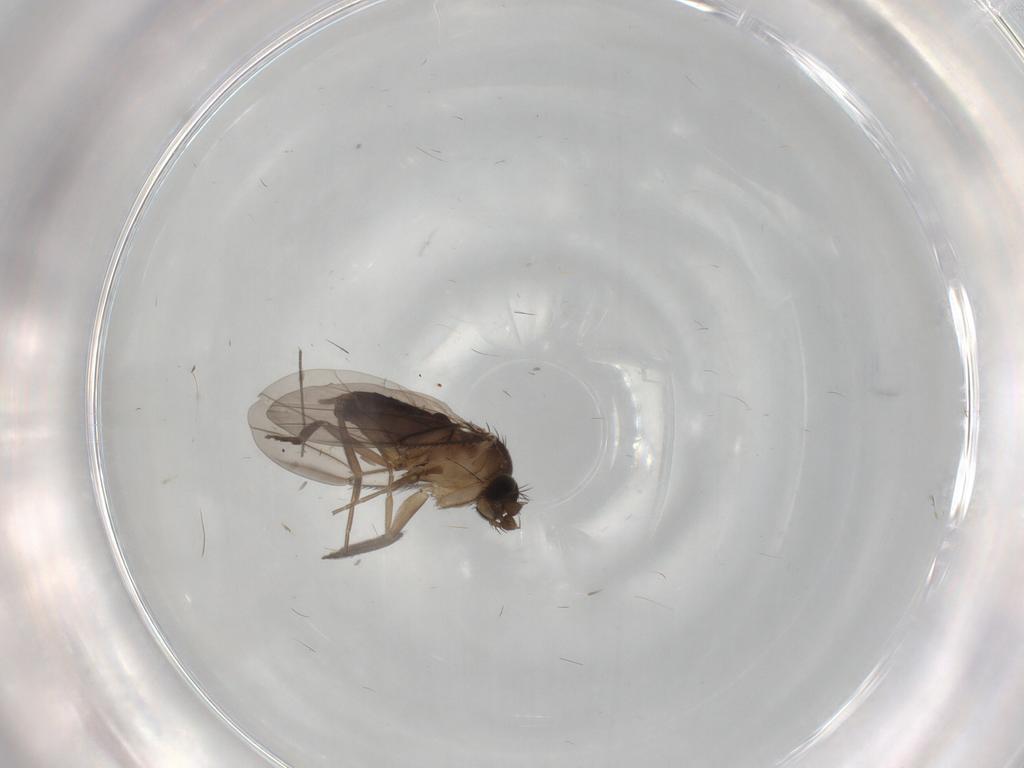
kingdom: Animalia
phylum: Arthropoda
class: Insecta
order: Diptera
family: Phoridae
